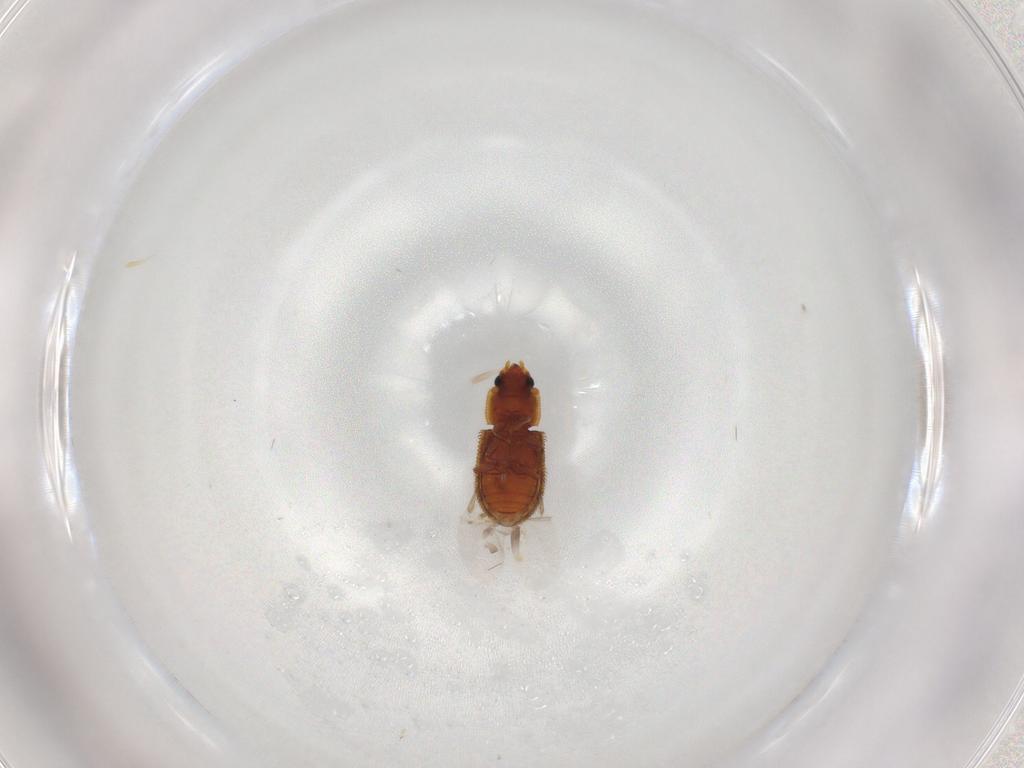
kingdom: Animalia
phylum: Arthropoda
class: Insecta
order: Coleoptera
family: Zopheridae
